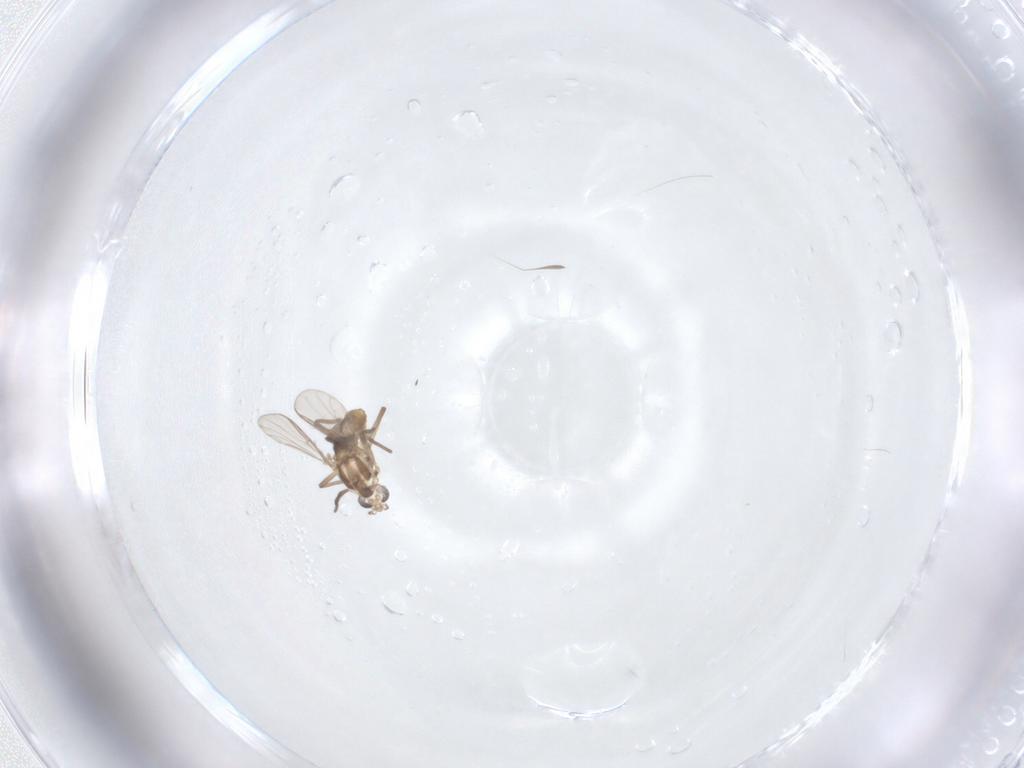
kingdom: Animalia
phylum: Arthropoda
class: Insecta
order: Diptera
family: Chironomidae
